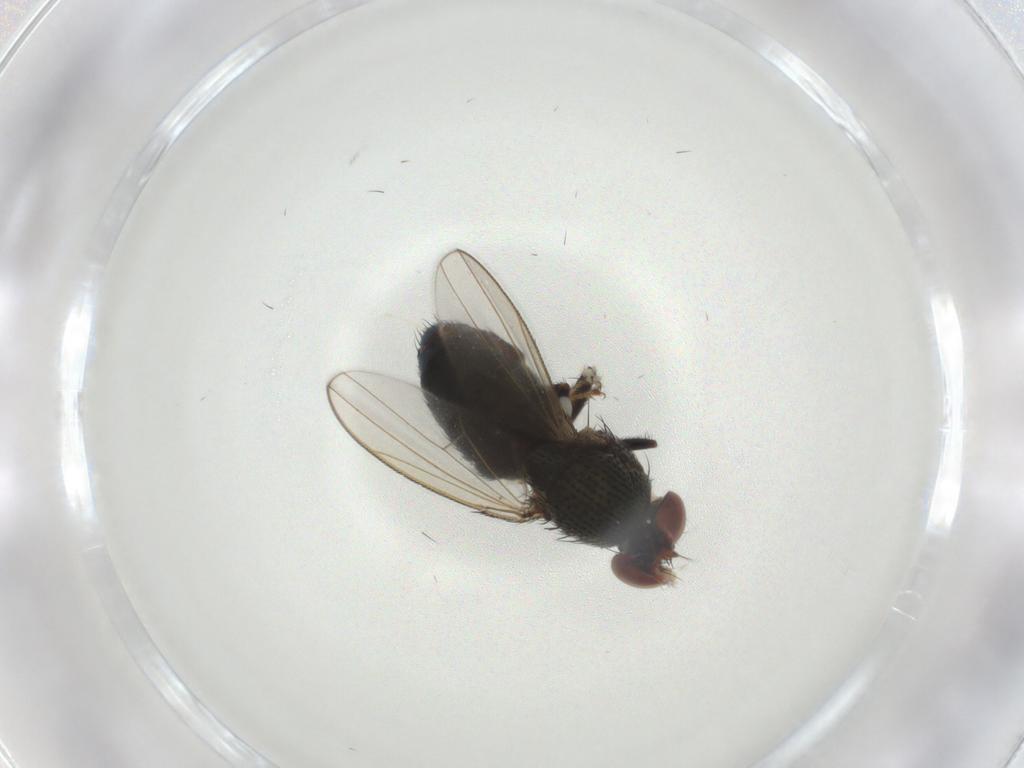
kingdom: Animalia
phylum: Arthropoda
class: Insecta
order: Diptera
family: Ephydridae
